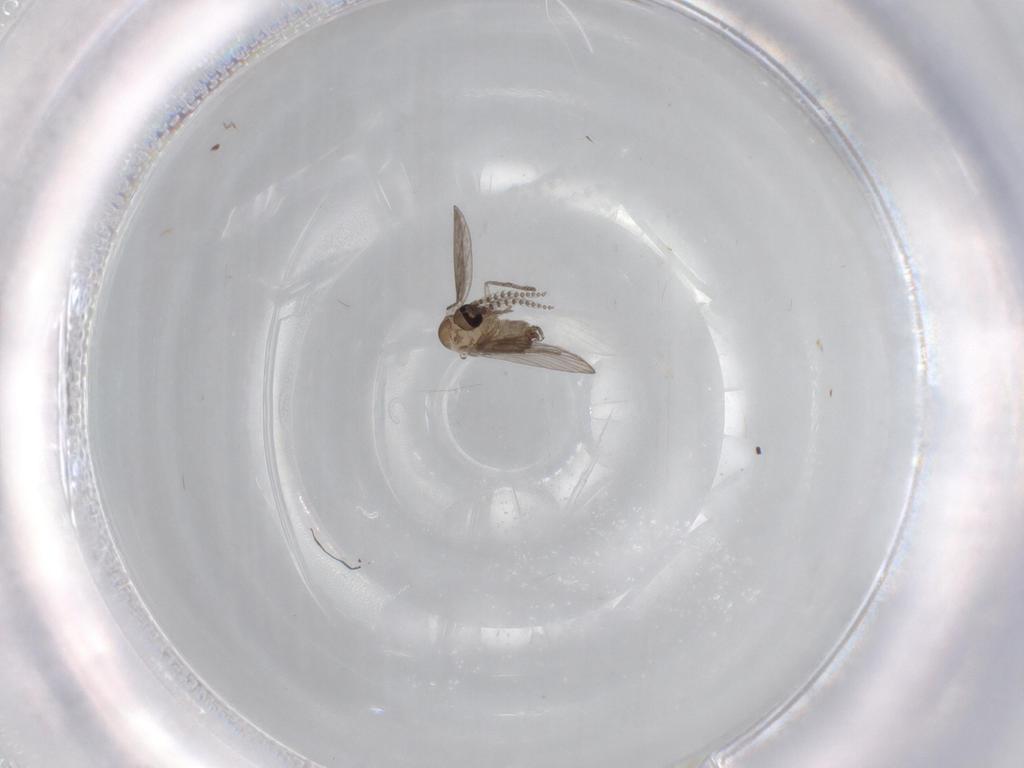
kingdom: Animalia
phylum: Arthropoda
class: Insecta
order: Diptera
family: Psychodidae
